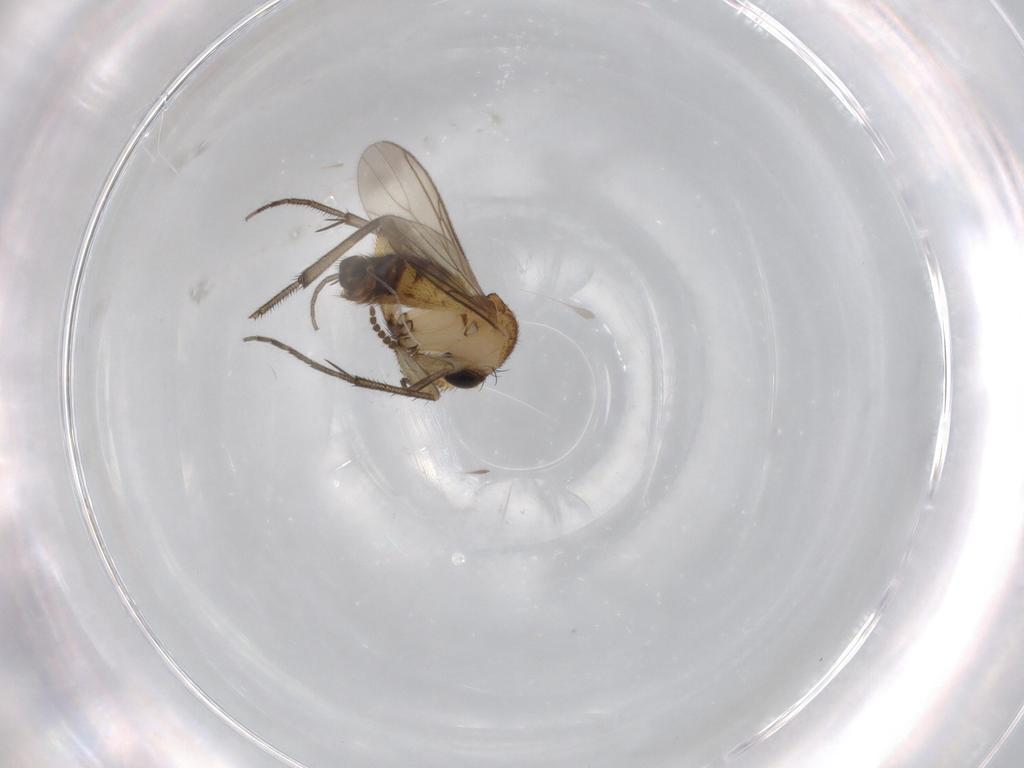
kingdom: Animalia
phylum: Arthropoda
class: Insecta
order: Diptera
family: Mycetophilidae
